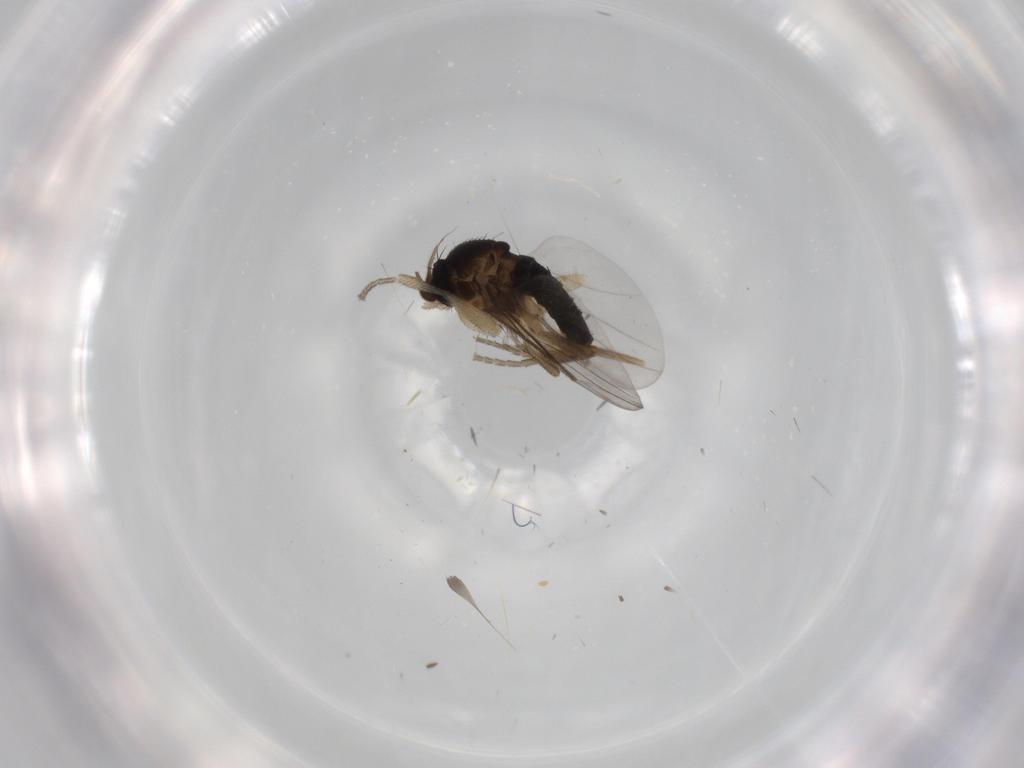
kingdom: Animalia
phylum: Arthropoda
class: Insecta
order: Diptera
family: Phoridae
